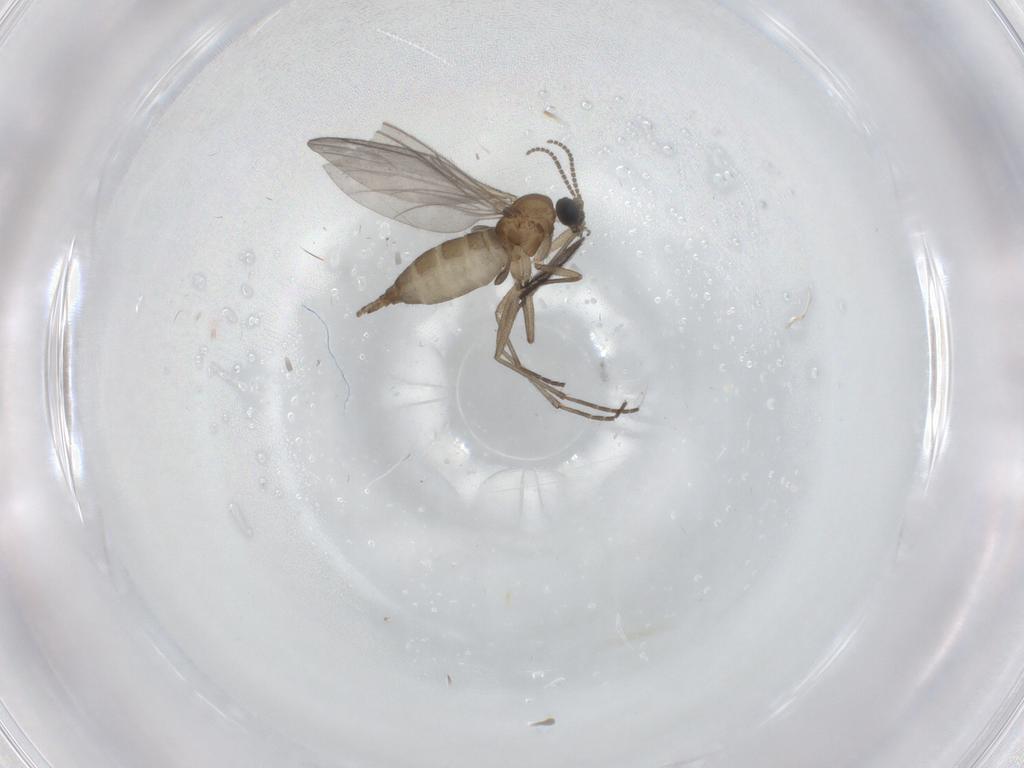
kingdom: Animalia
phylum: Arthropoda
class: Insecta
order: Diptera
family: Sciaridae
